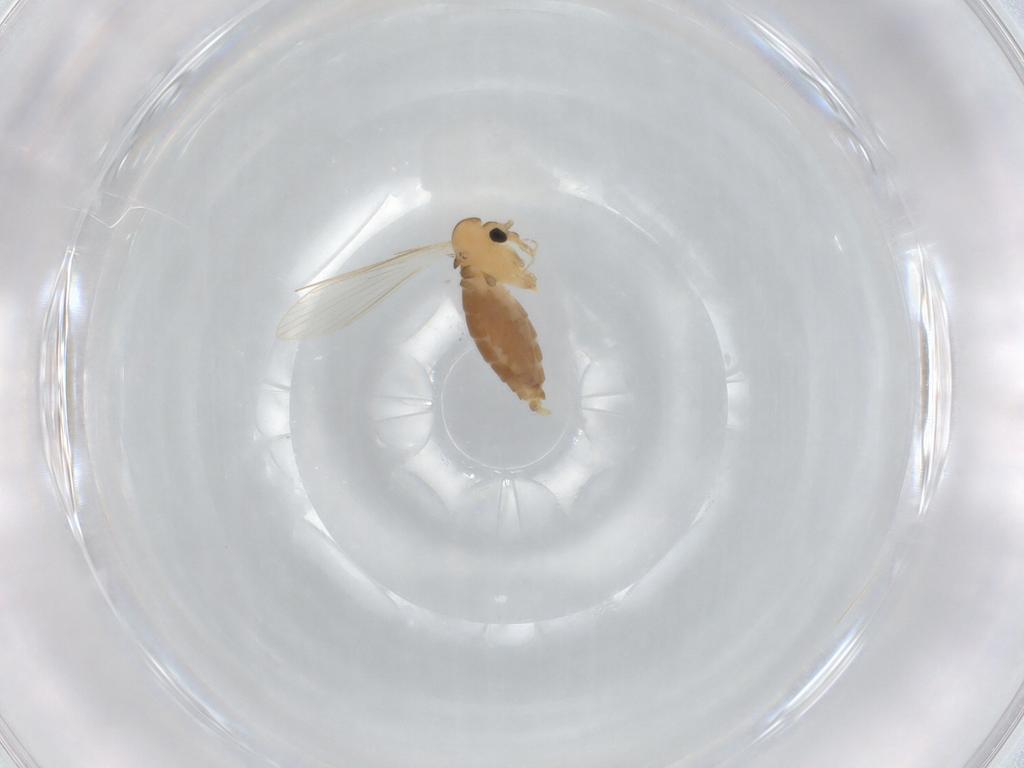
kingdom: Animalia
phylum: Arthropoda
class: Insecta
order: Diptera
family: Psychodidae
